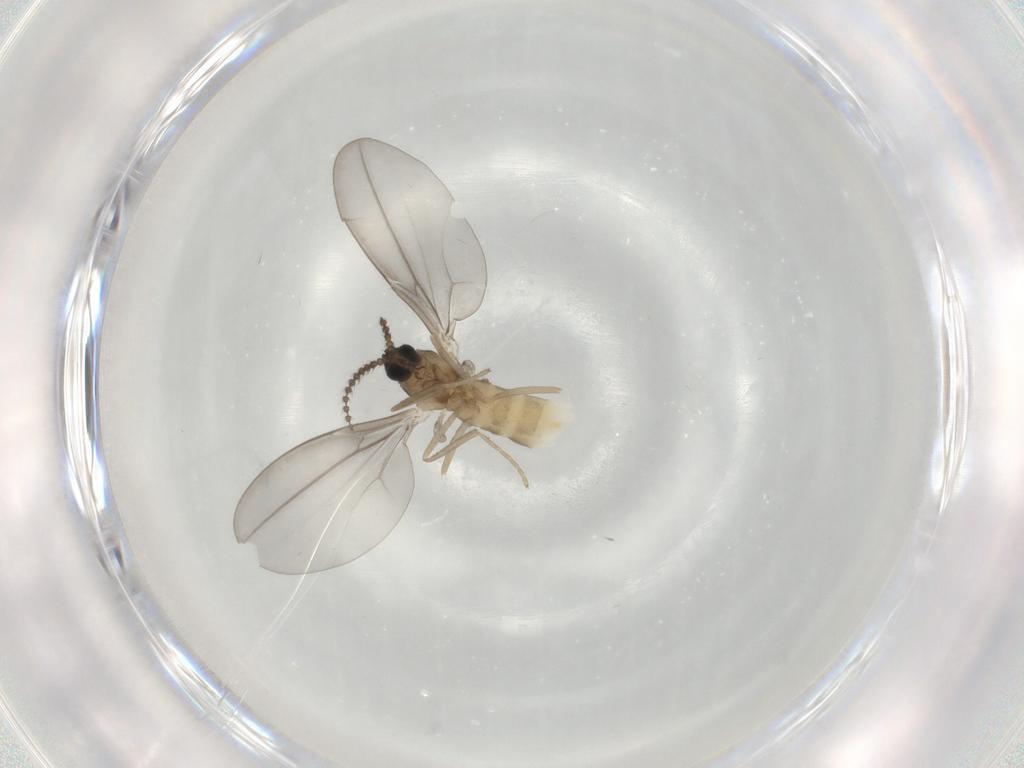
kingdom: Animalia
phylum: Arthropoda
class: Insecta
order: Diptera
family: Cecidomyiidae
